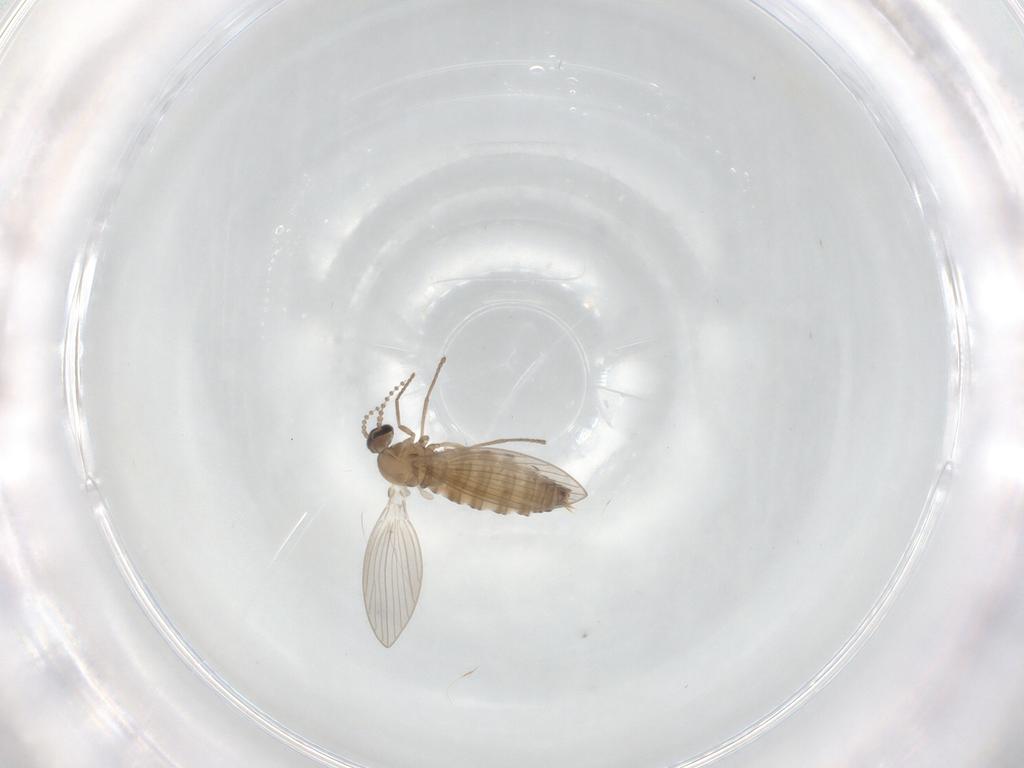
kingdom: Animalia
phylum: Arthropoda
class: Insecta
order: Diptera
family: Psychodidae
